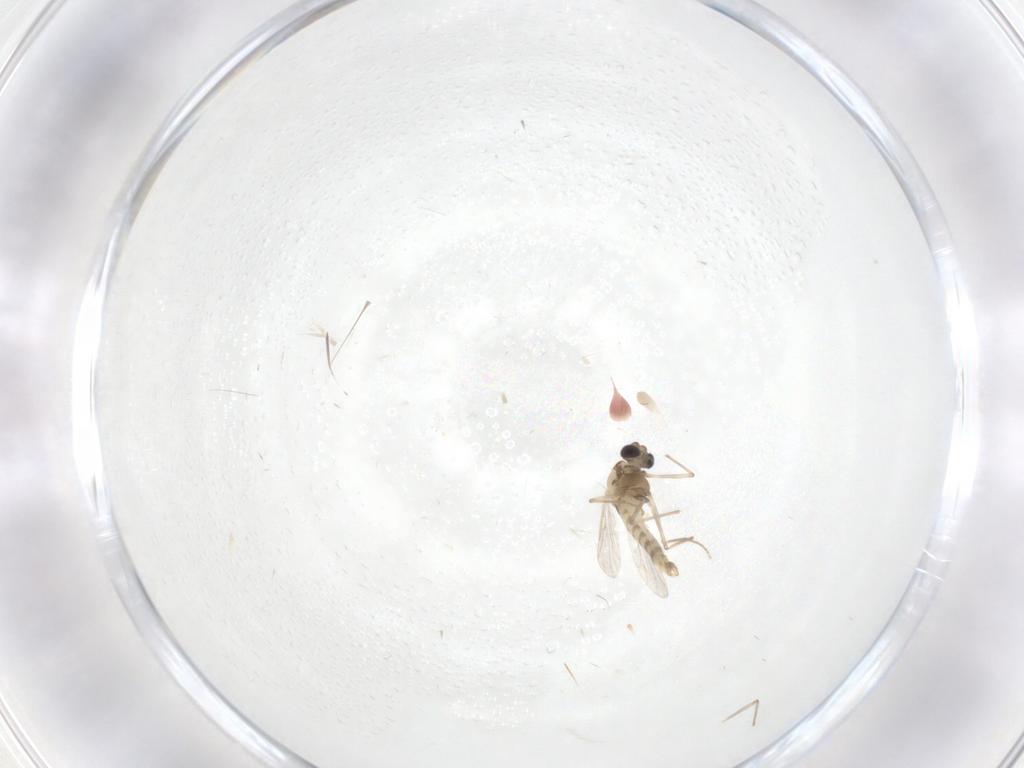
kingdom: Animalia
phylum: Arthropoda
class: Insecta
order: Diptera
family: Chironomidae
